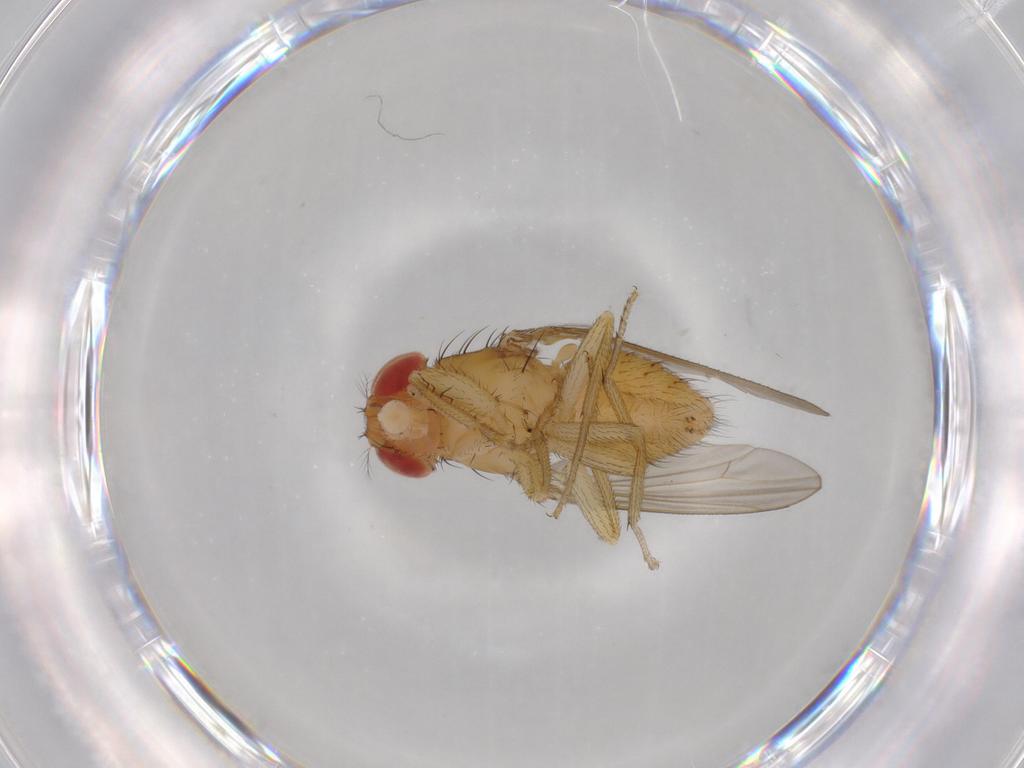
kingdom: Animalia
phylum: Arthropoda
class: Insecta
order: Diptera
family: Drosophilidae
